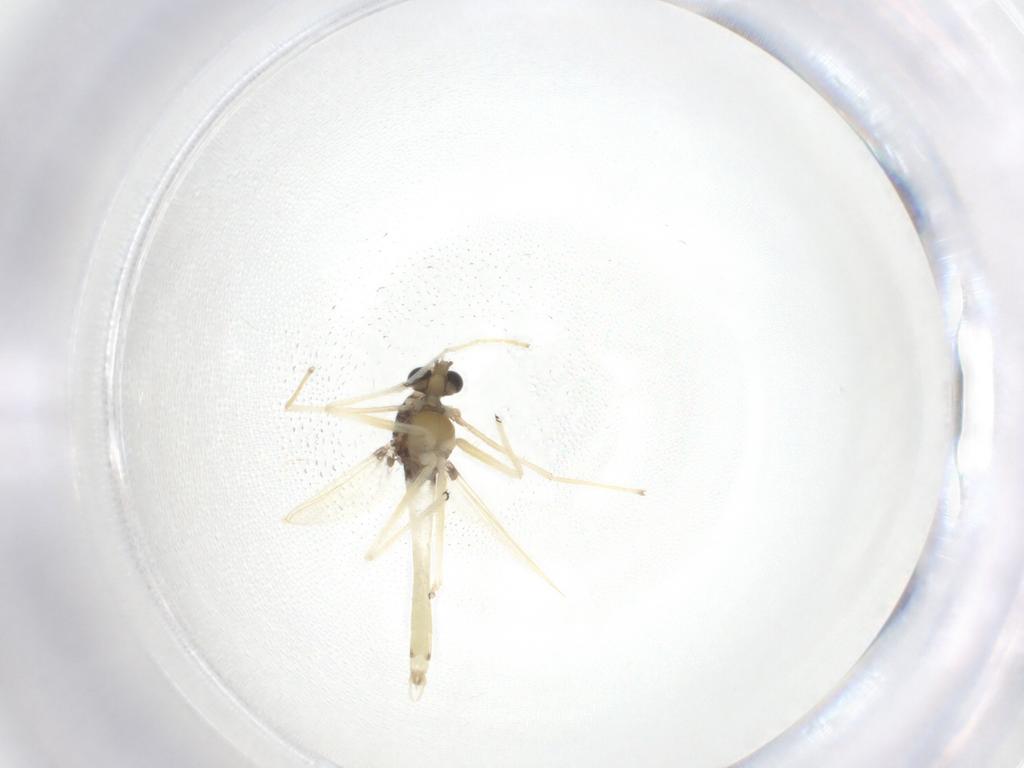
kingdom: Animalia
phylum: Arthropoda
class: Insecta
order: Diptera
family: Chironomidae
